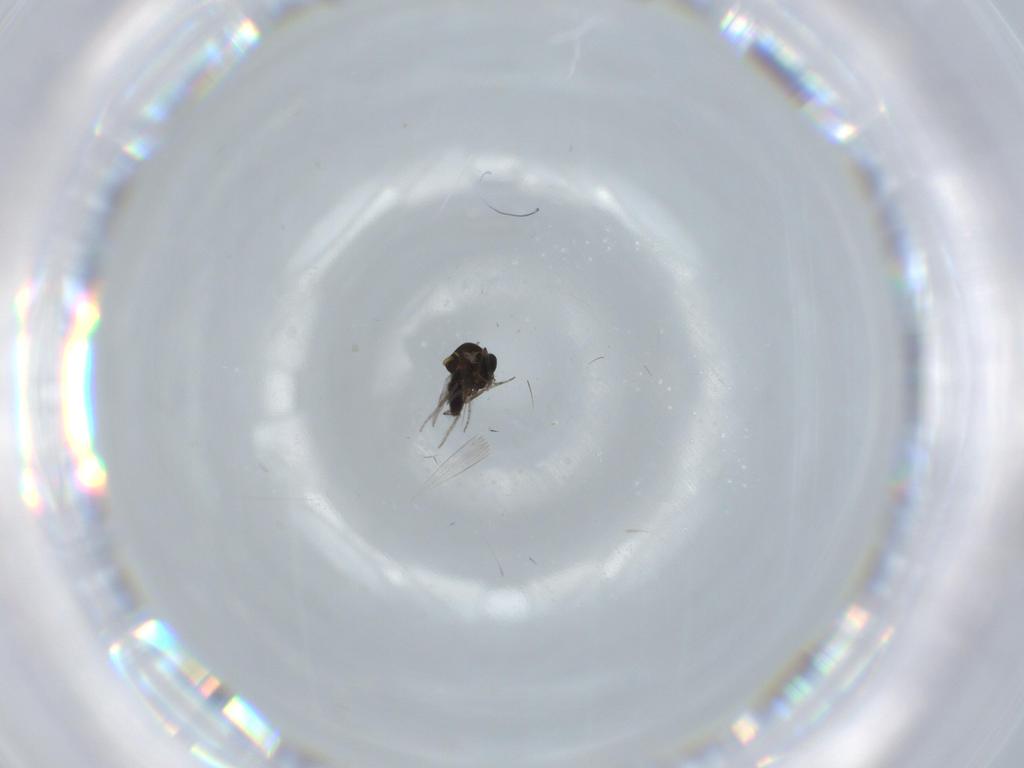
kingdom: Animalia
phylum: Arthropoda
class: Insecta
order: Diptera
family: Ceratopogonidae
